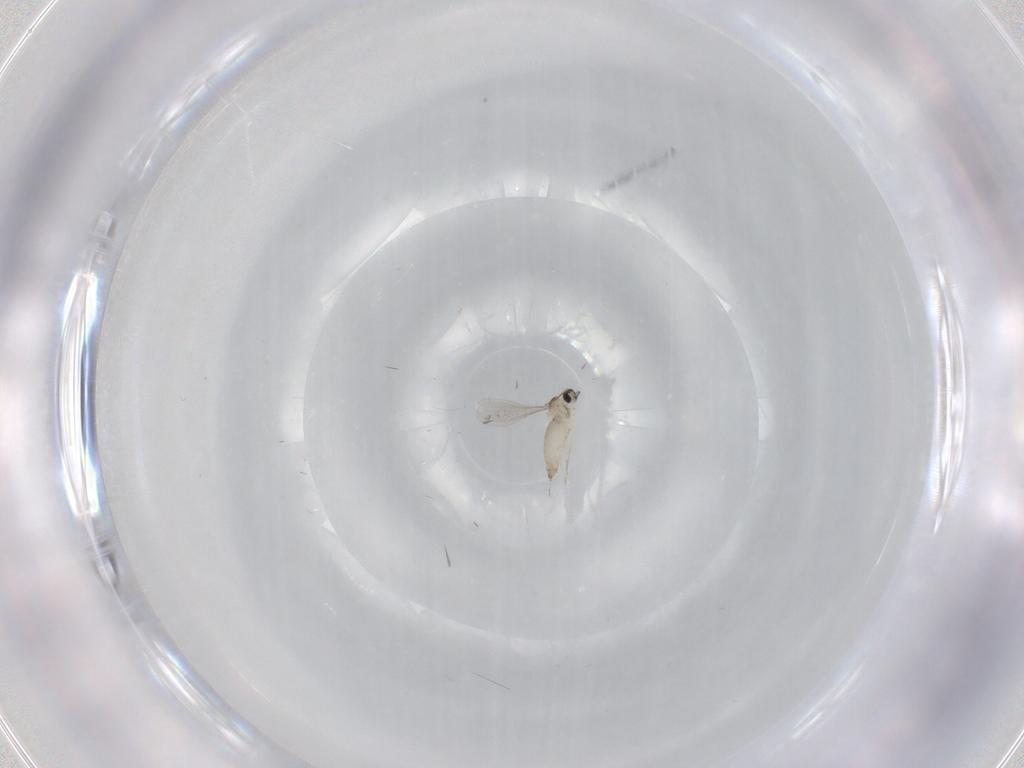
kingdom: Animalia
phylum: Arthropoda
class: Insecta
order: Diptera
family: Cecidomyiidae
